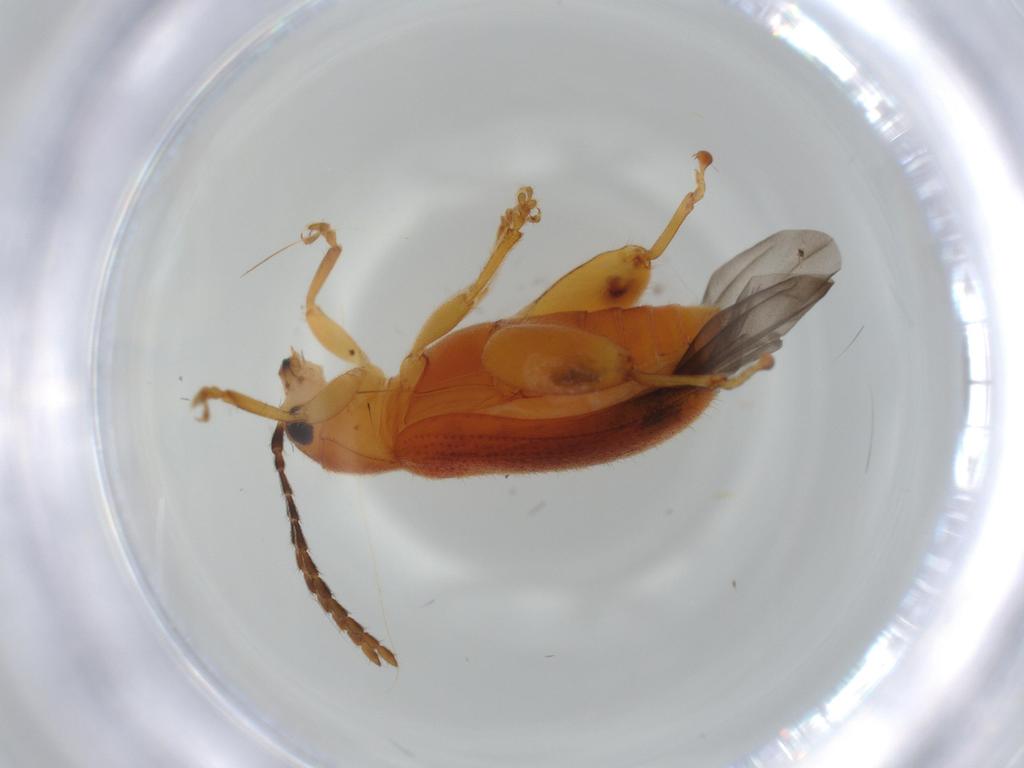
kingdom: Animalia
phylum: Arthropoda
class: Insecta
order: Coleoptera
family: Chrysomelidae
